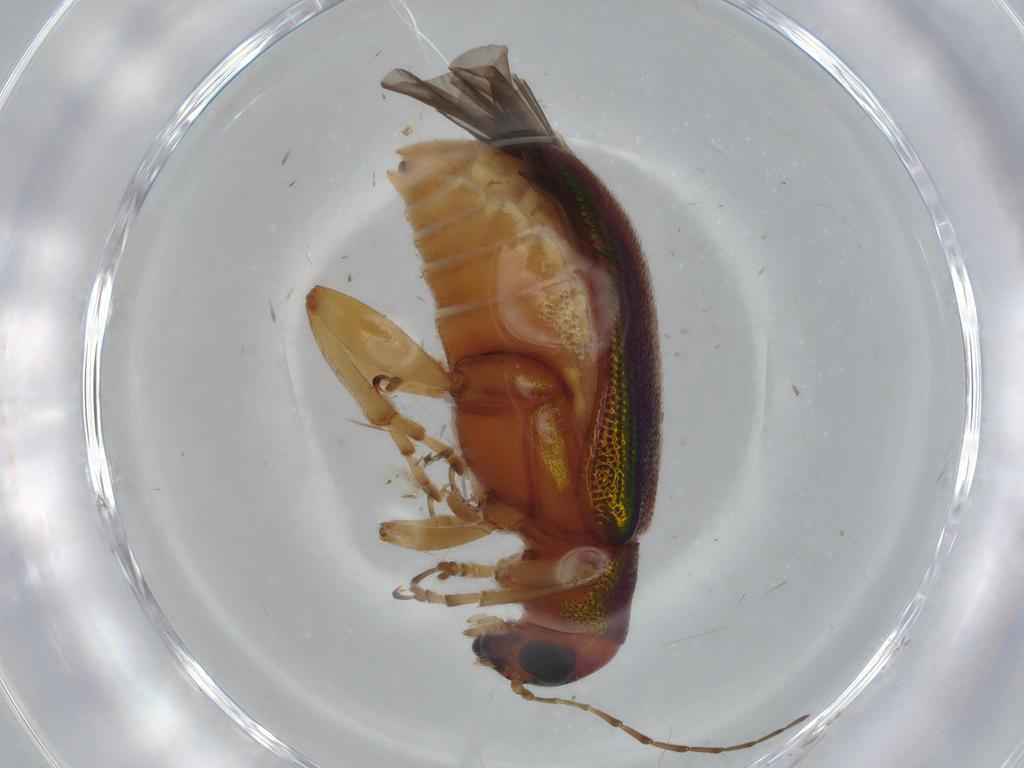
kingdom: Animalia
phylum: Arthropoda
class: Insecta
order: Coleoptera
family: Chrysomelidae
